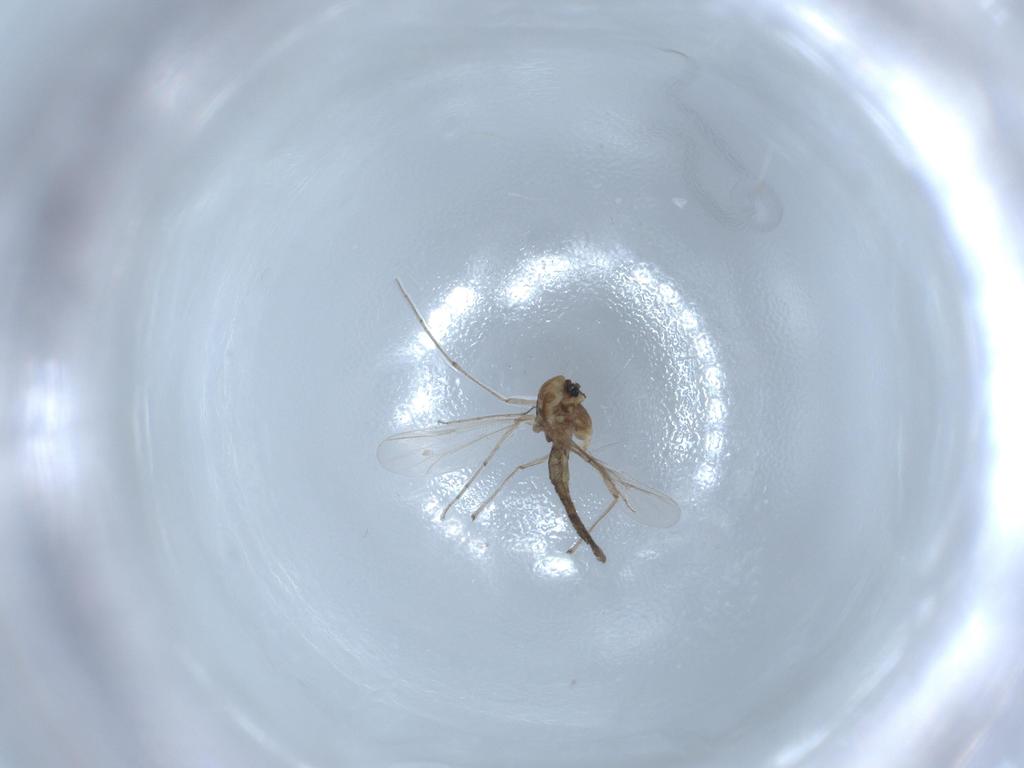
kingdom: Animalia
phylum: Arthropoda
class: Insecta
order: Diptera
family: Chironomidae
